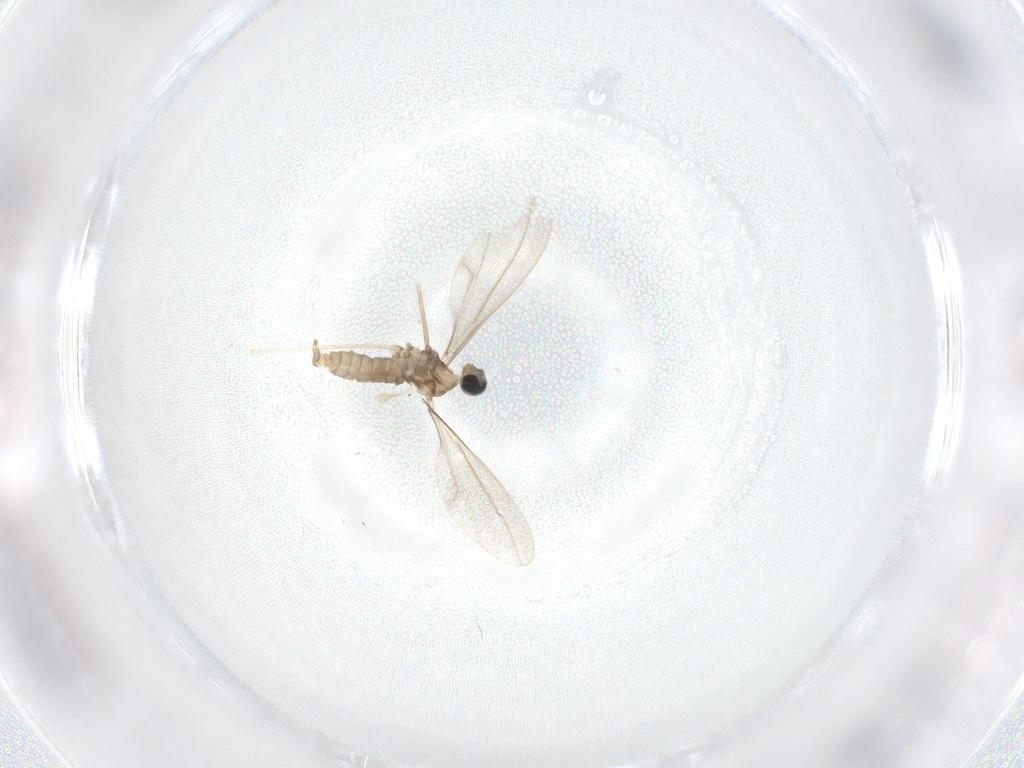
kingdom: Animalia
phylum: Arthropoda
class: Insecta
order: Diptera
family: Cecidomyiidae
